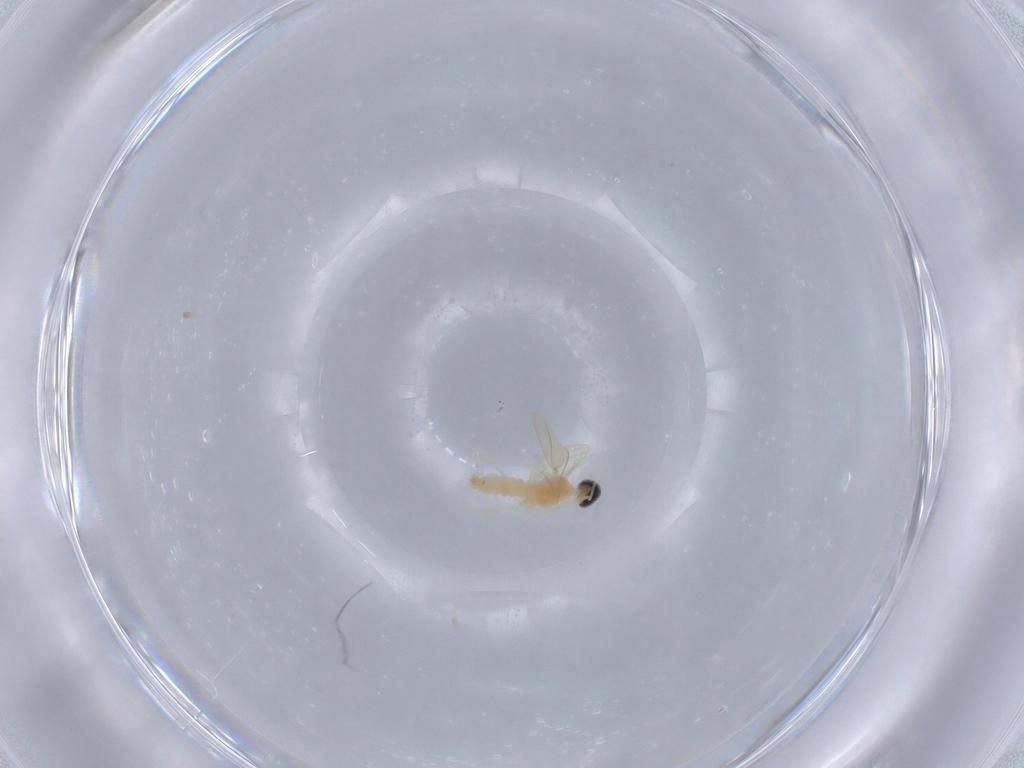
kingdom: Animalia
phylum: Arthropoda
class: Insecta
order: Diptera
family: Cecidomyiidae
